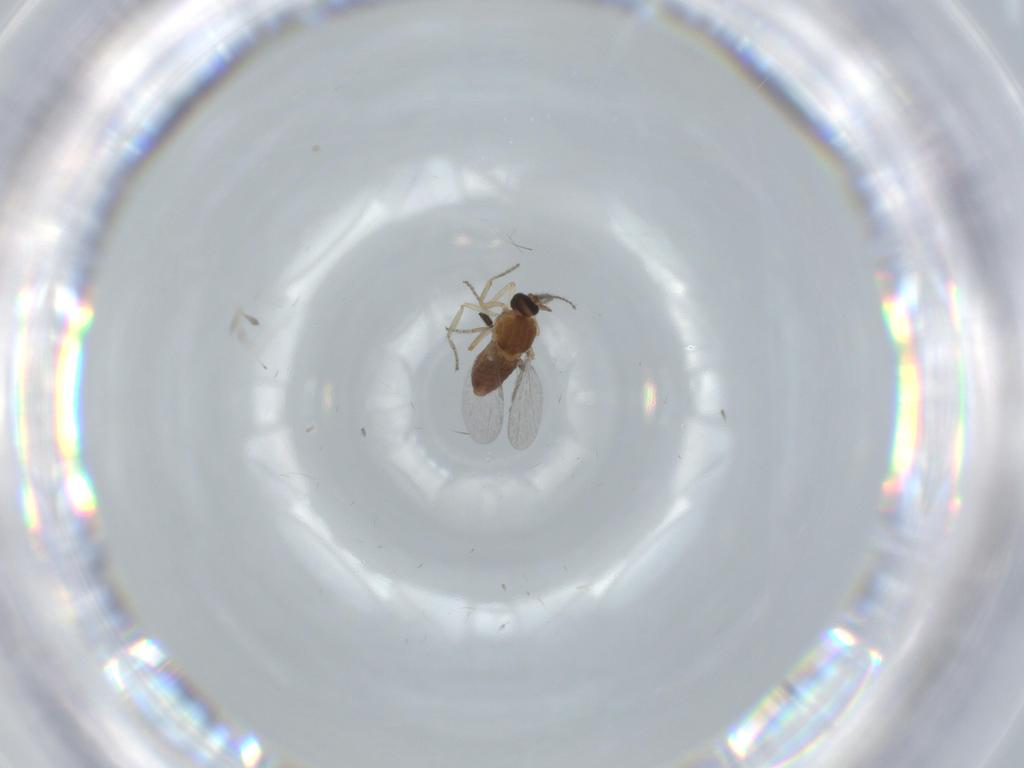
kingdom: Animalia
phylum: Arthropoda
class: Insecta
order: Diptera
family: Sciaridae
